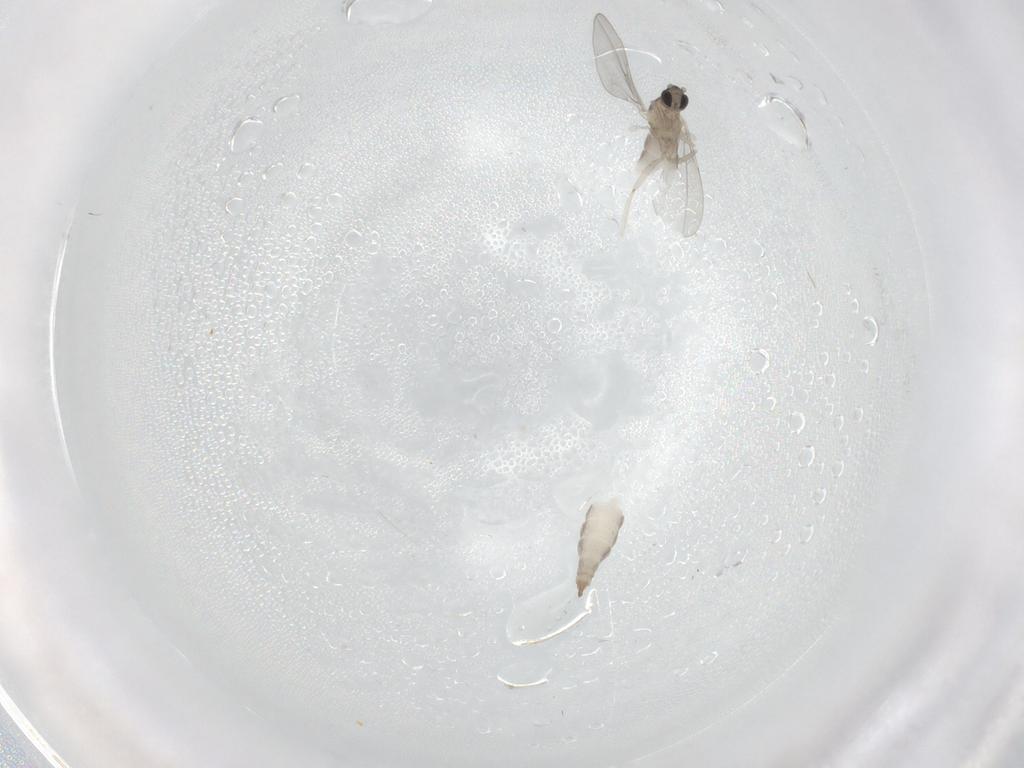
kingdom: Animalia
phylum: Arthropoda
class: Insecta
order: Diptera
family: Cecidomyiidae
